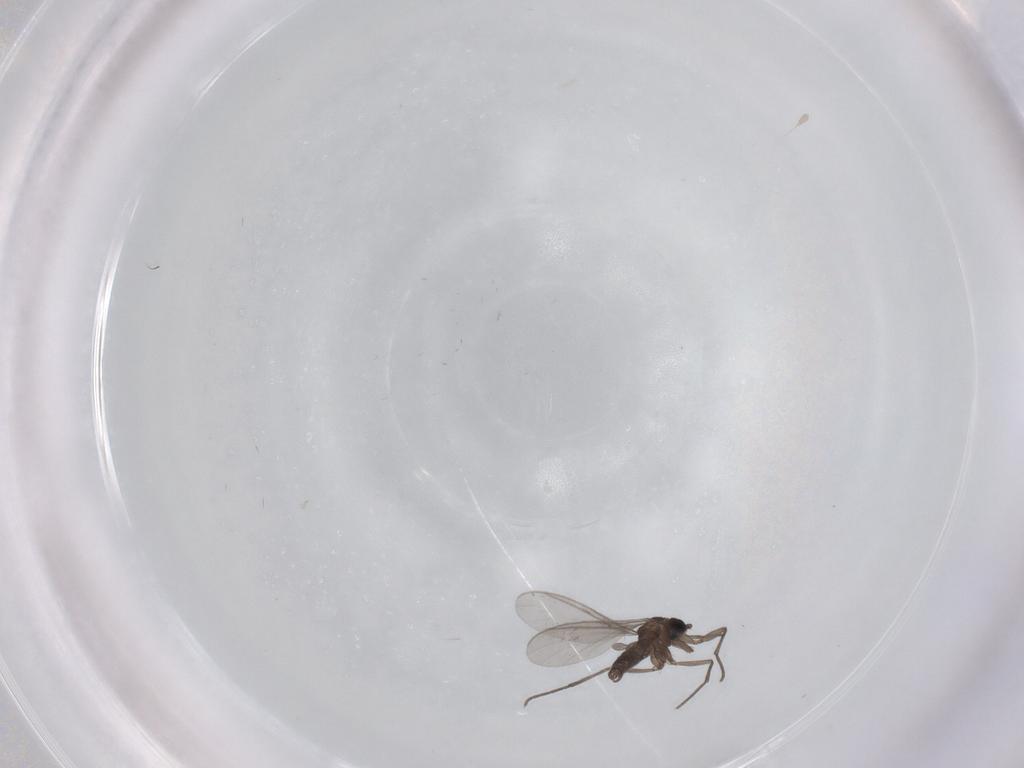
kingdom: Animalia
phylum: Arthropoda
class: Insecta
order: Diptera
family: Sciaridae
